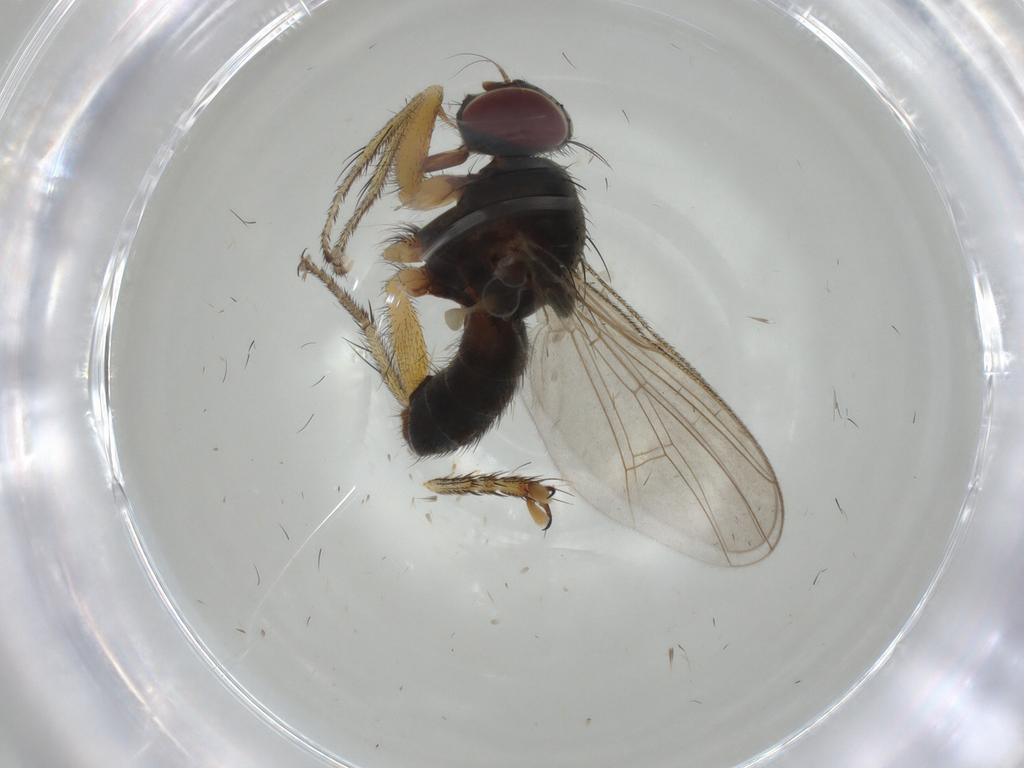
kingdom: Animalia
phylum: Arthropoda
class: Insecta
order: Diptera
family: Muscidae
